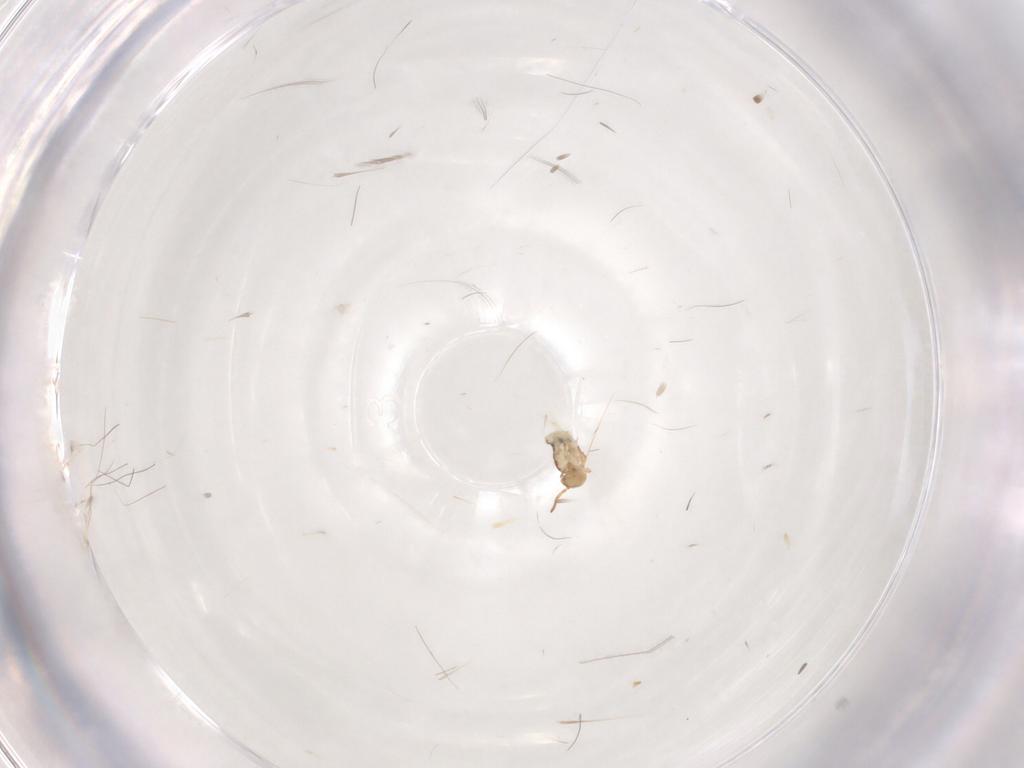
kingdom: Animalia
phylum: Arthropoda
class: Collembola
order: Symphypleona
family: Bourletiellidae
